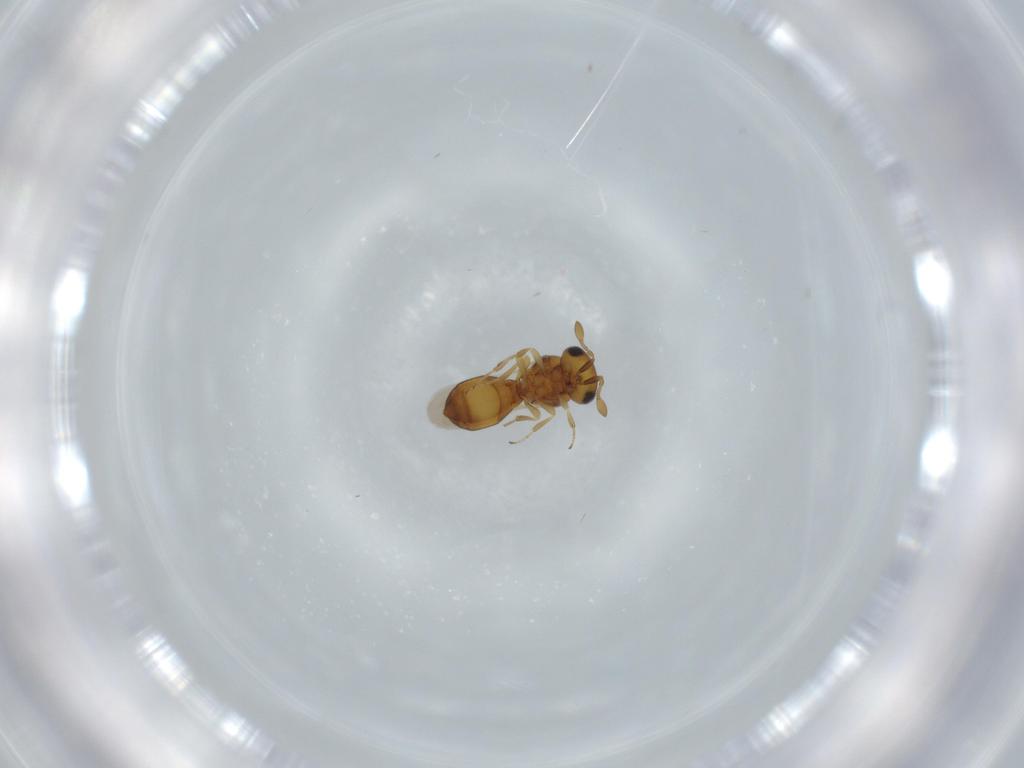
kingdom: Animalia
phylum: Arthropoda
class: Insecta
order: Hymenoptera
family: Scelionidae
